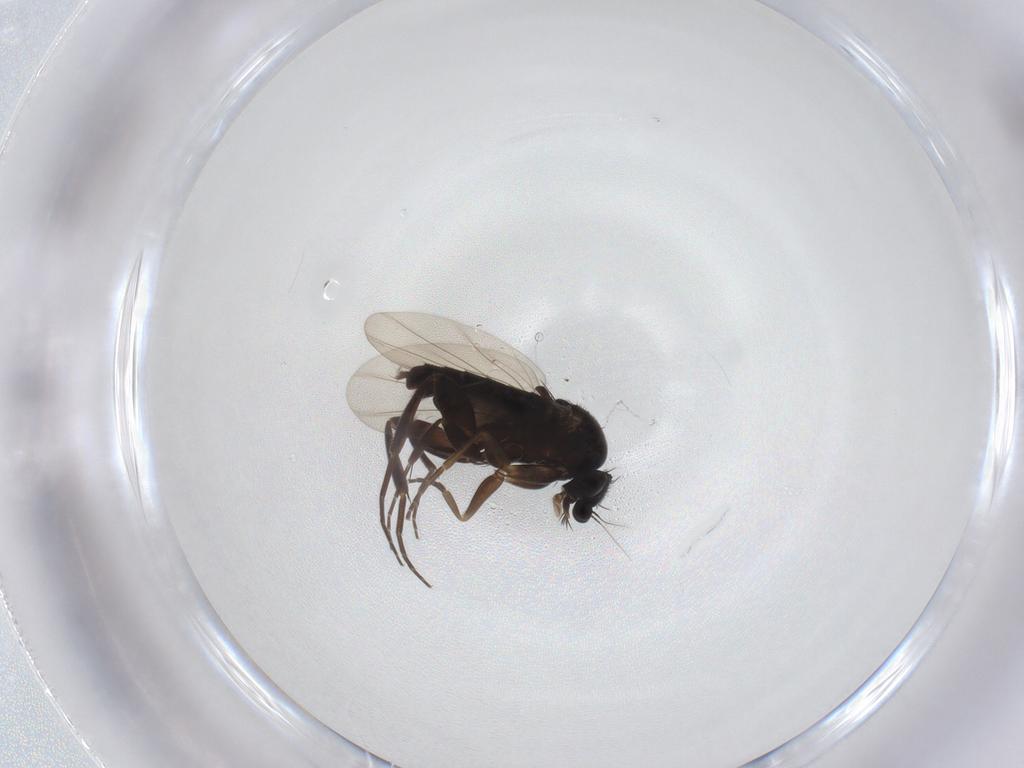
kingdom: Animalia
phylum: Arthropoda
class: Insecta
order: Diptera
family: Phoridae
